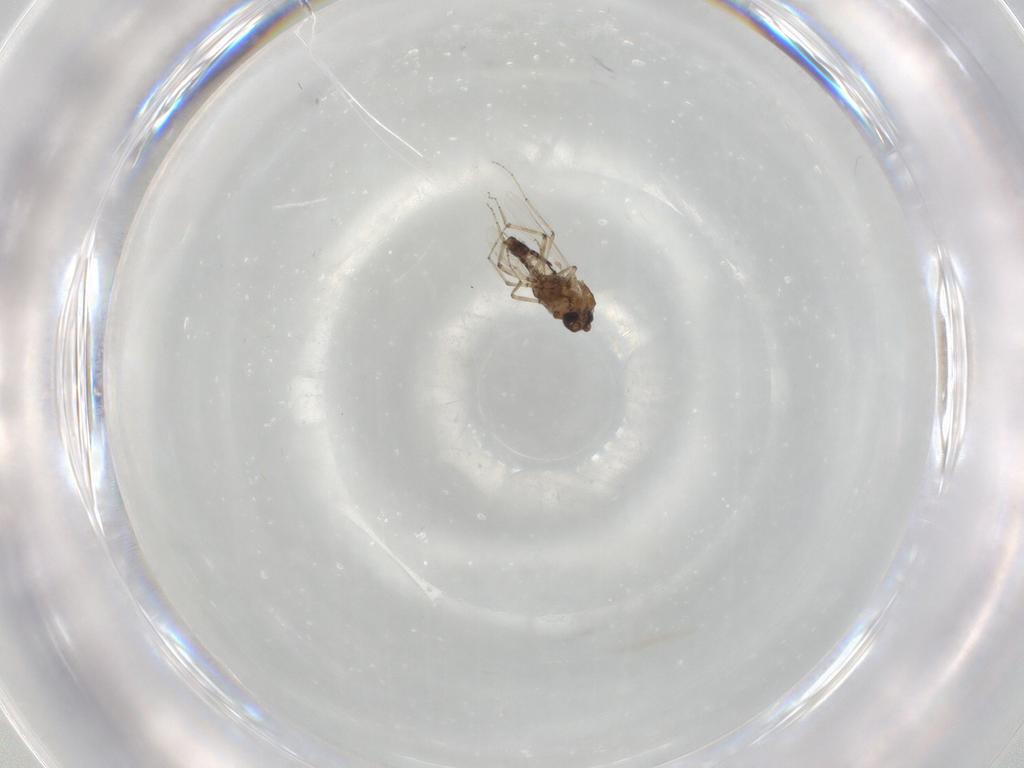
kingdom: Animalia
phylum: Arthropoda
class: Insecta
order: Diptera
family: Ceratopogonidae
